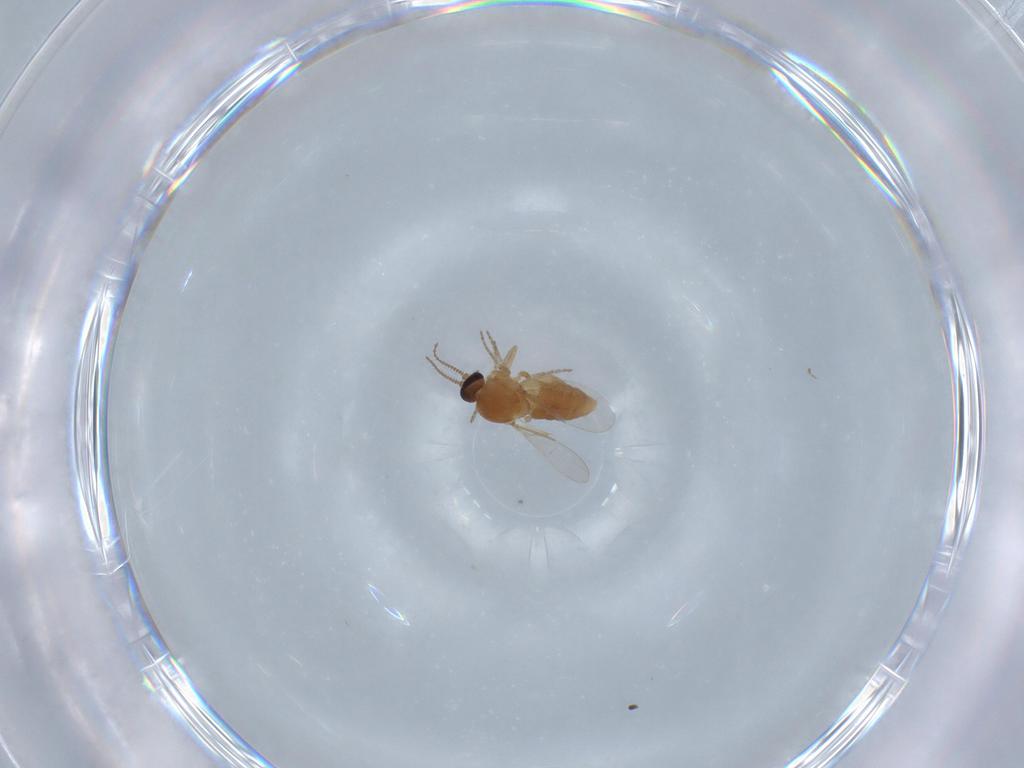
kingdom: Animalia
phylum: Arthropoda
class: Insecta
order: Diptera
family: Ceratopogonidae
